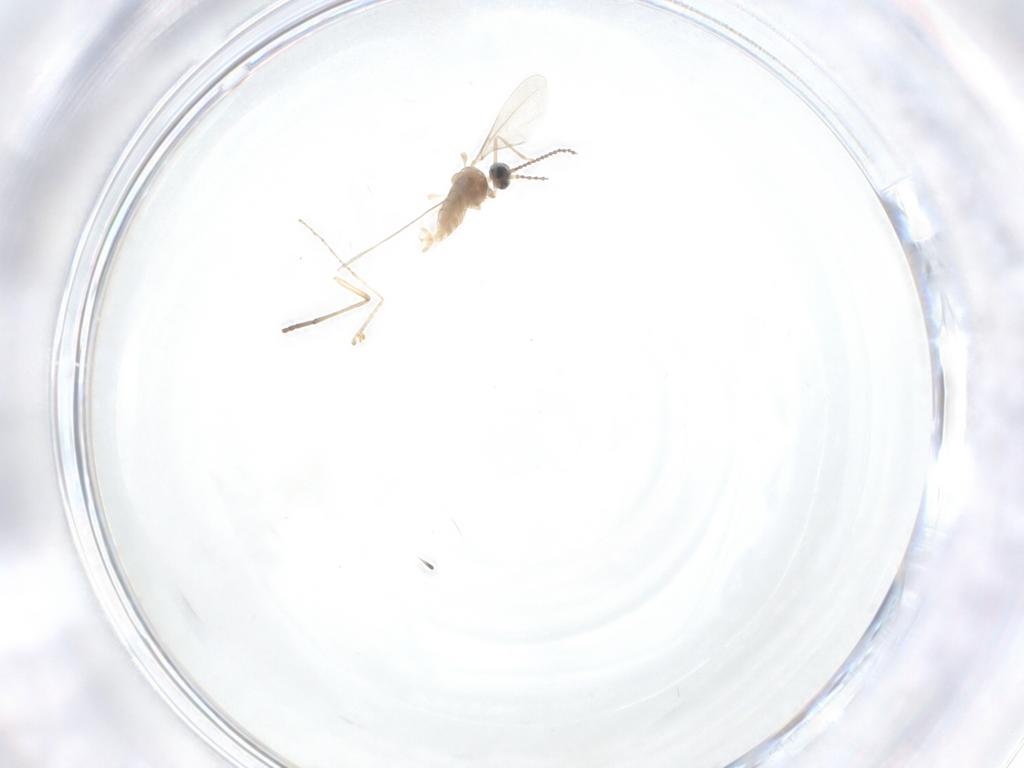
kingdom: Animalia
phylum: Arthropoda
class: Insecta
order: Diptera
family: Cecidomyiidae
